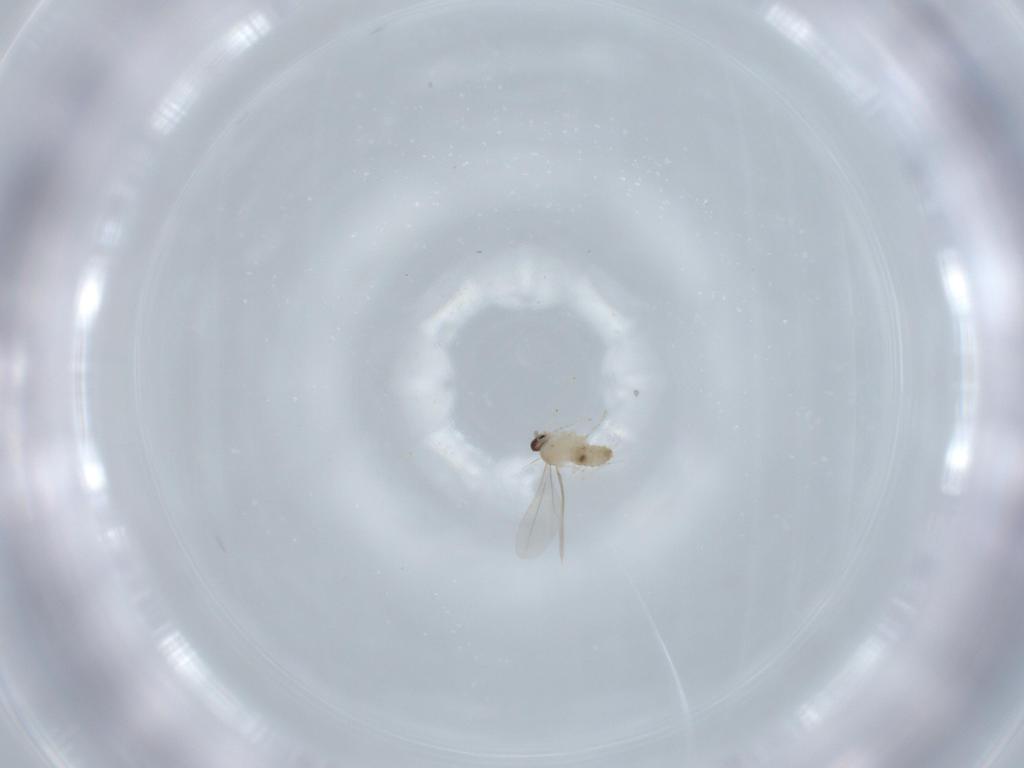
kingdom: Animalia
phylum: Arthropoda
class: Insecta
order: Diptera
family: Cecidomyiidae
